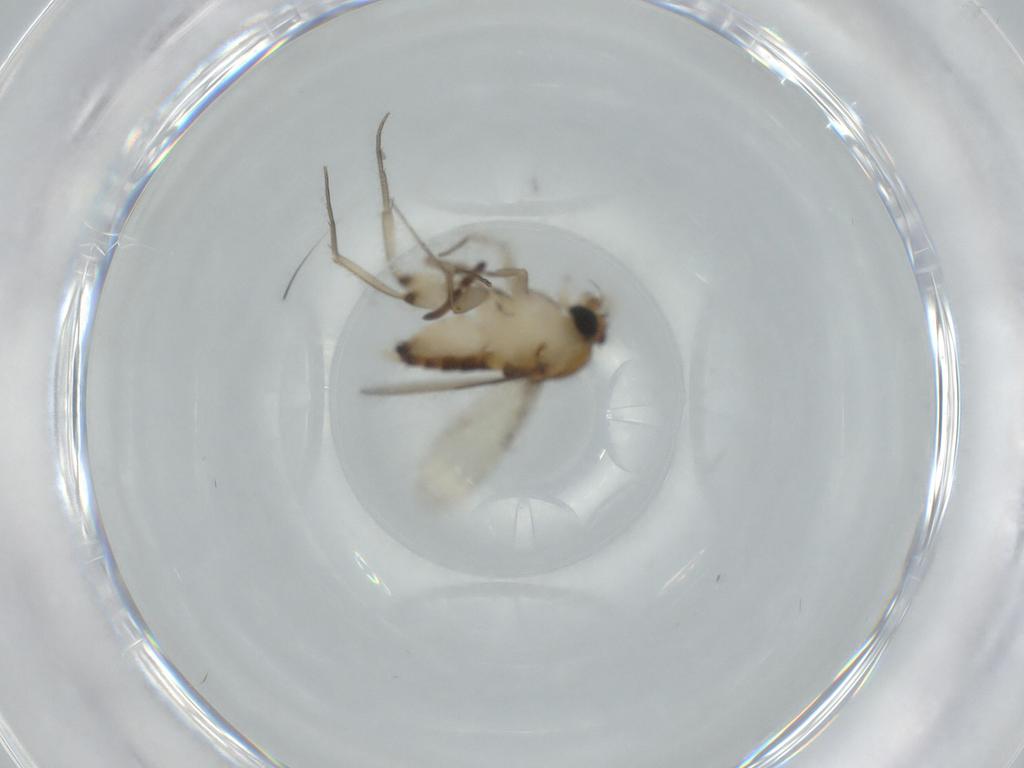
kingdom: Animalia
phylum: Arthropoda
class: Insecta
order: Diptera
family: Phoridae
